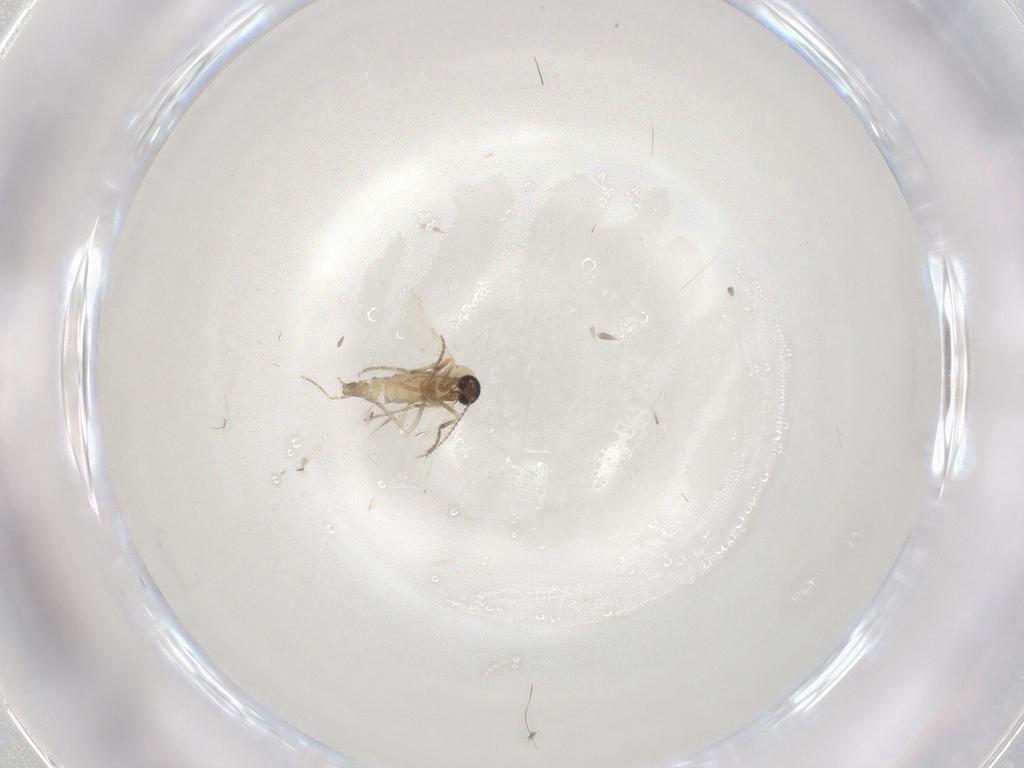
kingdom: Animalia
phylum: Arthropoda
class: Insecta
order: Diptera
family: Ceratopogonidae
